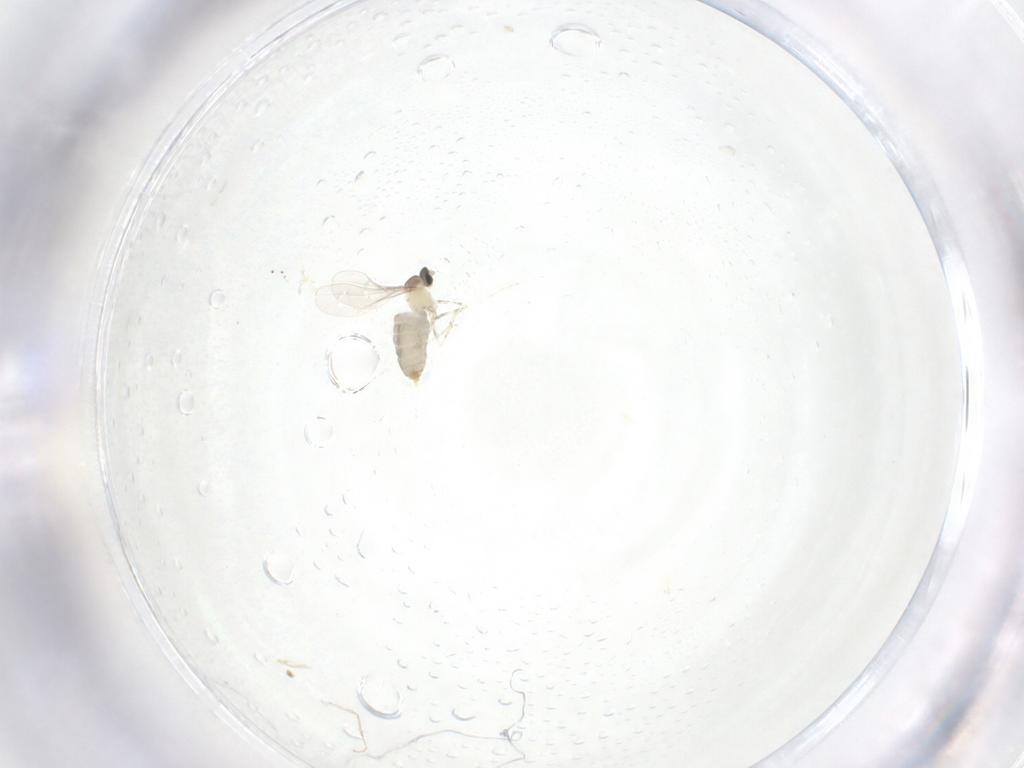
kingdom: Animalia
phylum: Arthropoda
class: Insecta
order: Diptera
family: Cecidomyiidae
